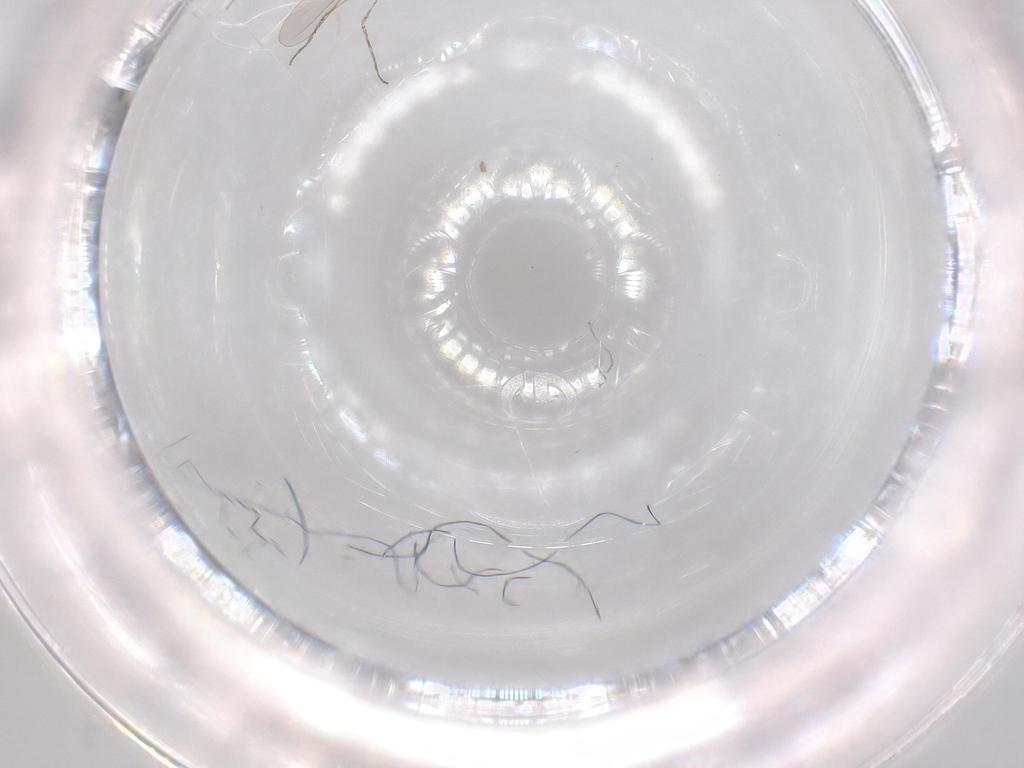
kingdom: Animalia
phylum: Arthropoda
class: Insecta
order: Diptera
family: Cecidomyiidae
